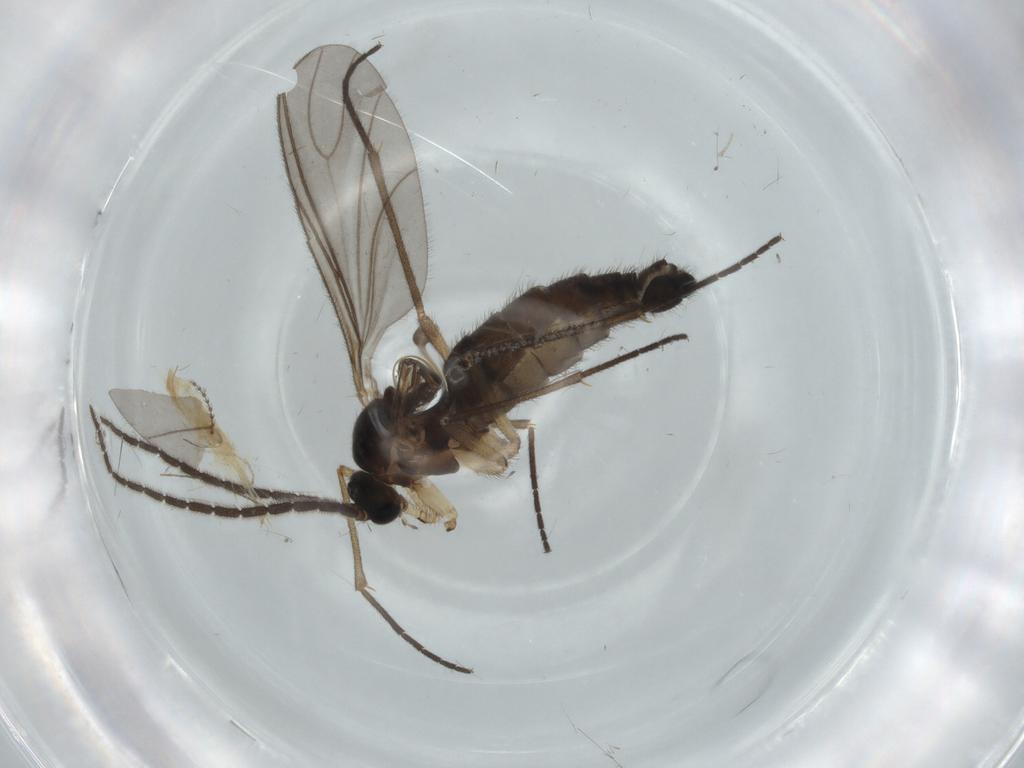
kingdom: Animalia
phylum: Arthropoda
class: Insecta
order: Diptera
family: Sciaridae
